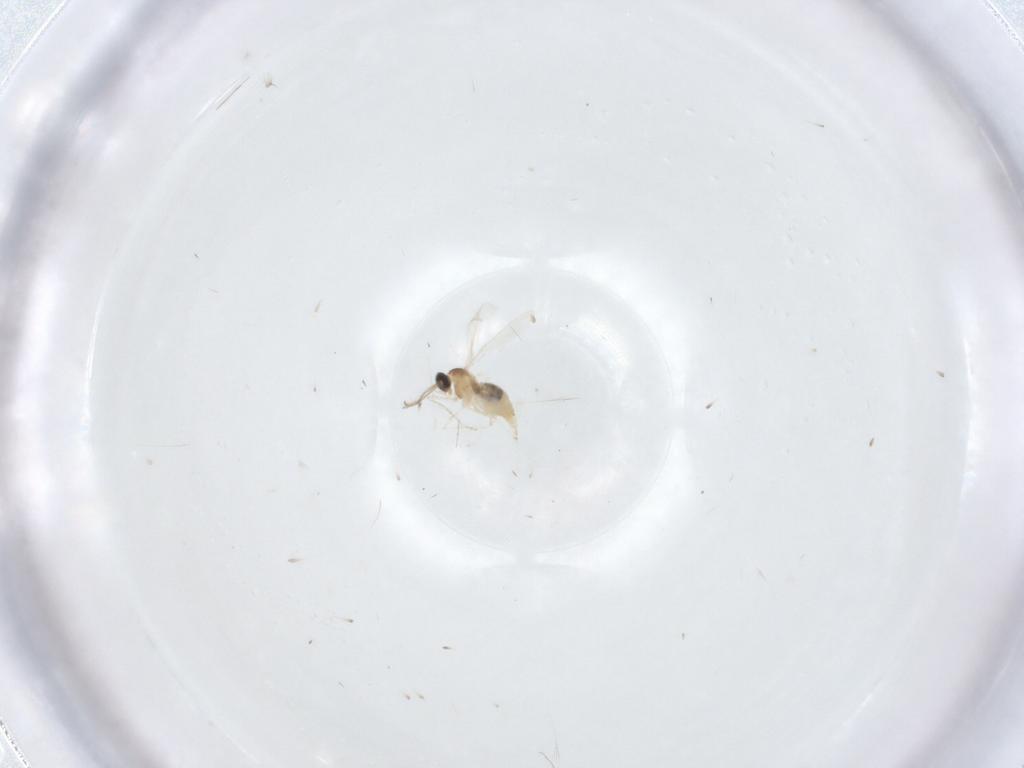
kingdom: Animalia
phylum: Arthropoda
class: Insecta
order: Diptera
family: Cecidomyiidae
